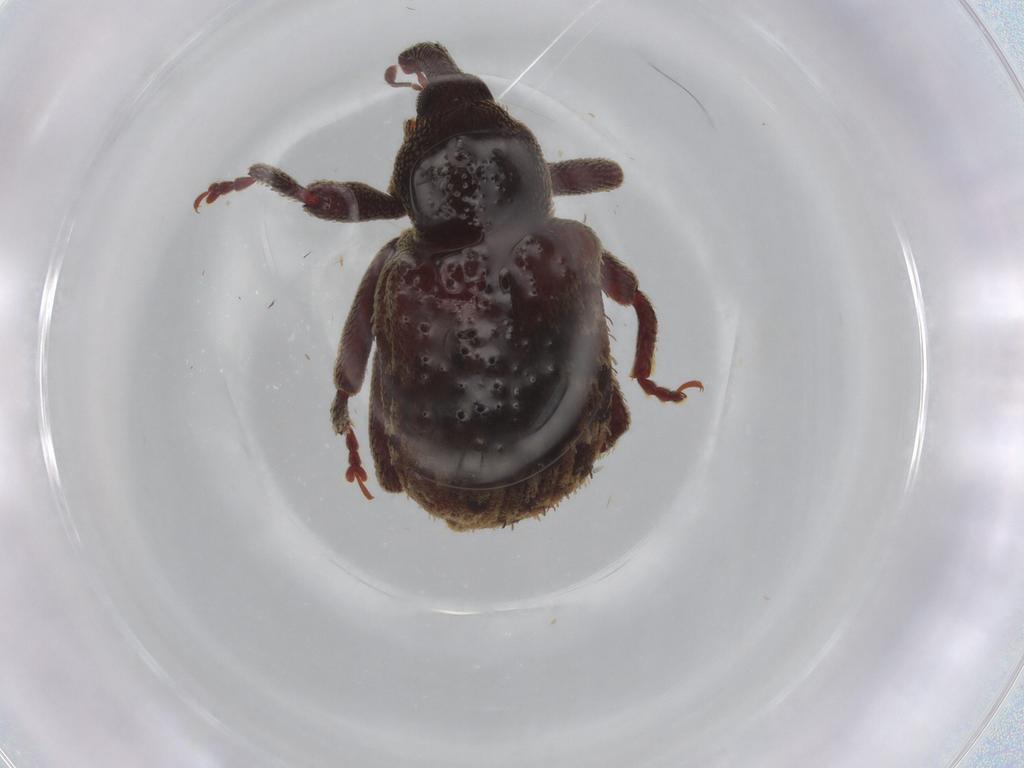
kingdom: Animalia
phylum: Arthropoda
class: Insecta
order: Coleoptera
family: Curculionidae
